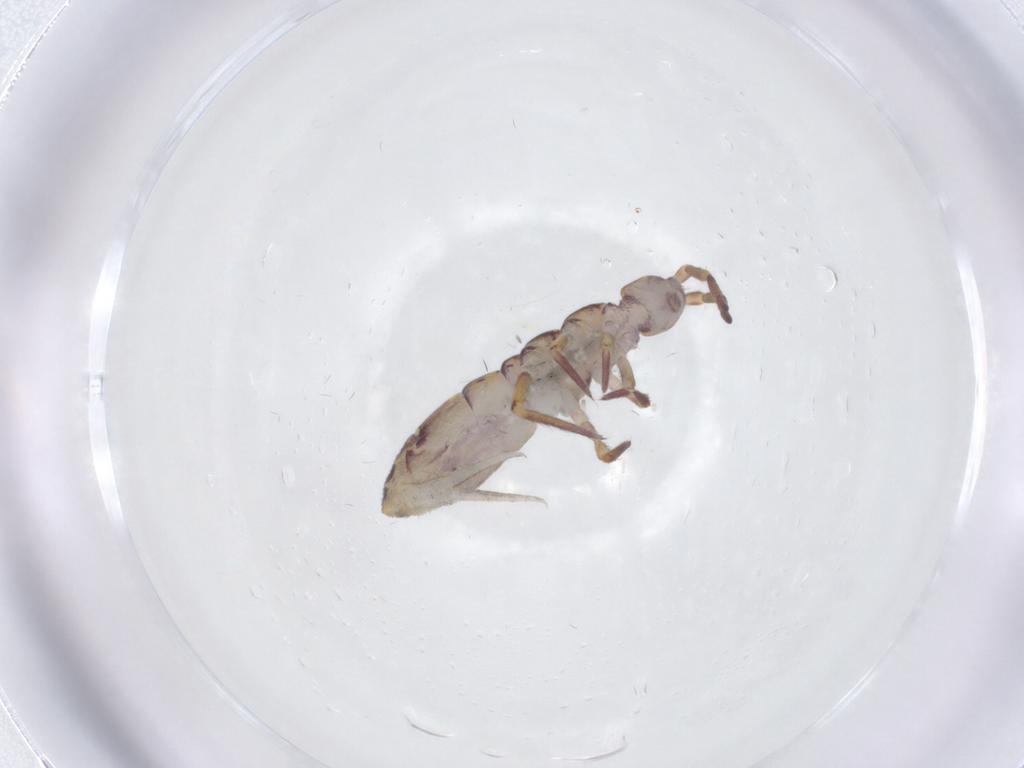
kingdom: Animalia
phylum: Arthropoda
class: Collembola
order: Entomobryomorpha
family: Isotomidae
